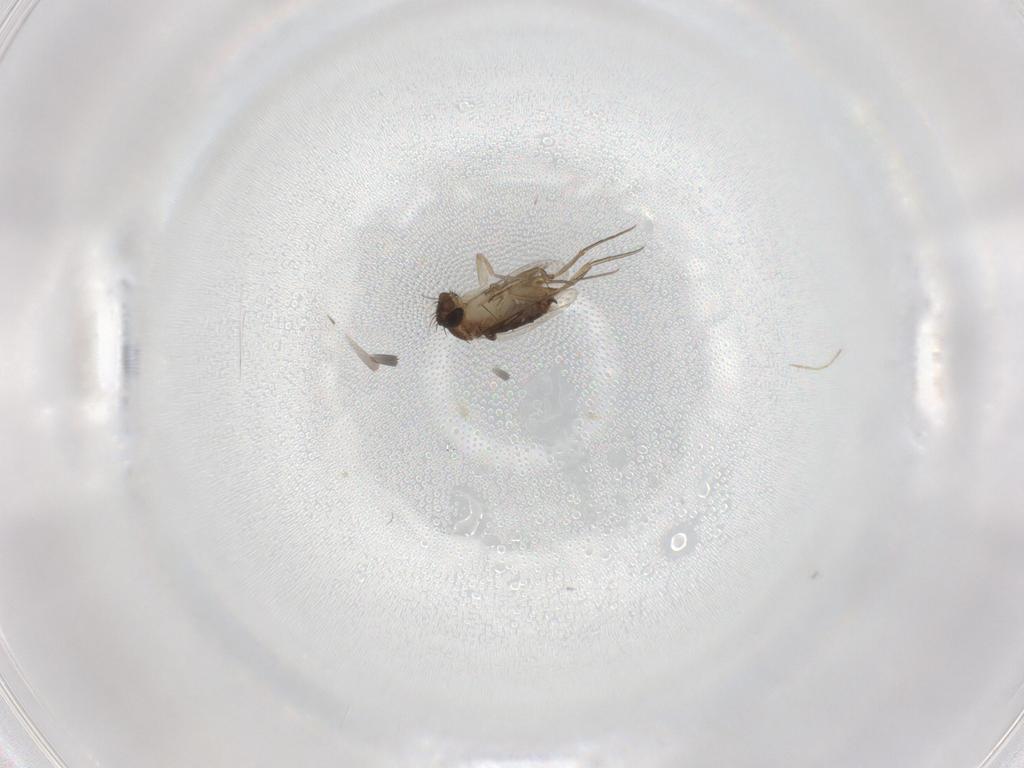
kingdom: Animalia
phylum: Arthropoda
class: Insecta
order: Diptera
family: Phoridae
